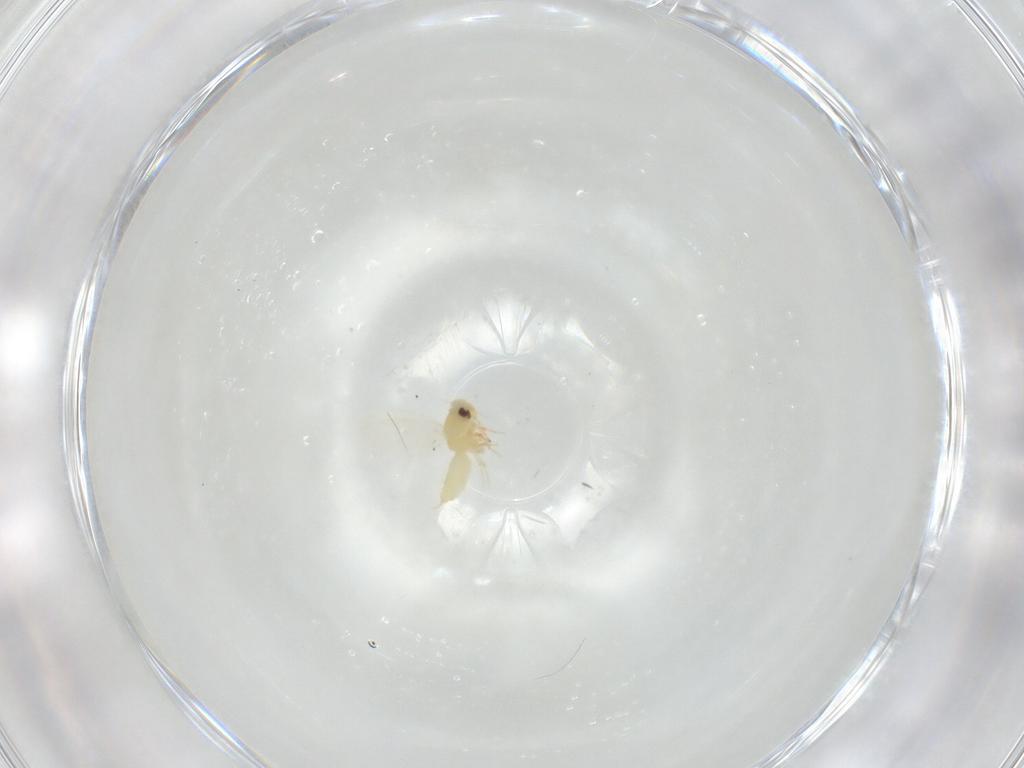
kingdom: Animalia
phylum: Arthropoda
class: Insecta
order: Hemiptera
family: Aleyrodidae
